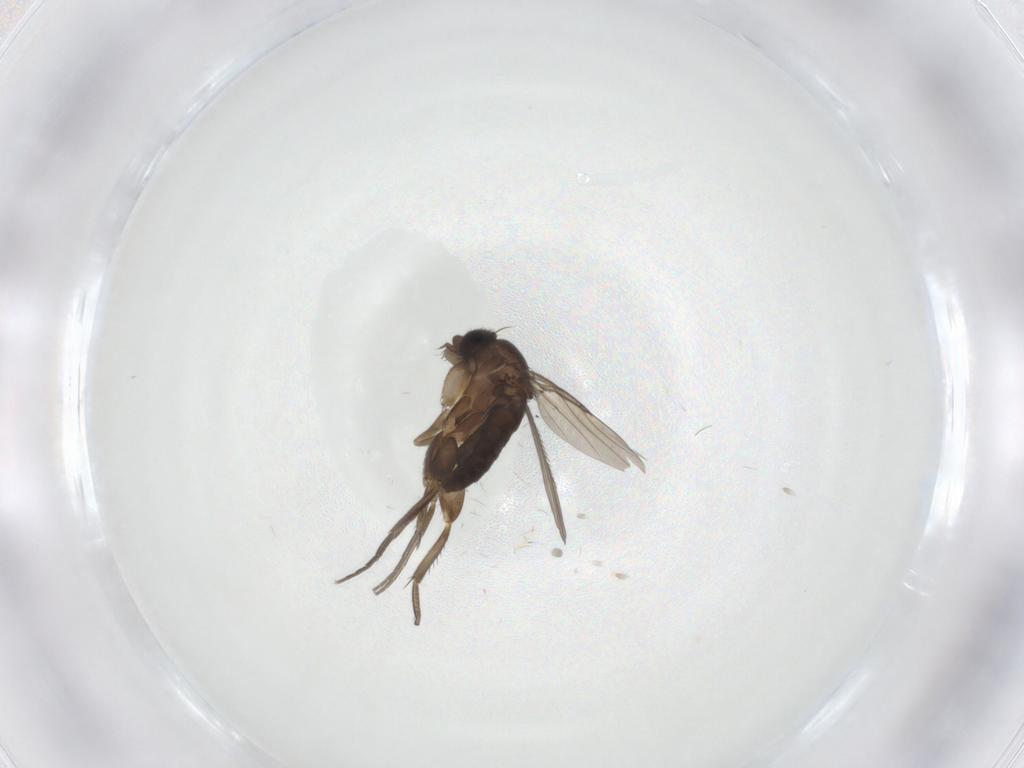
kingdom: Animalia
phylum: Arthropoda
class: Insecta
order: Diptera
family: Phoridae
